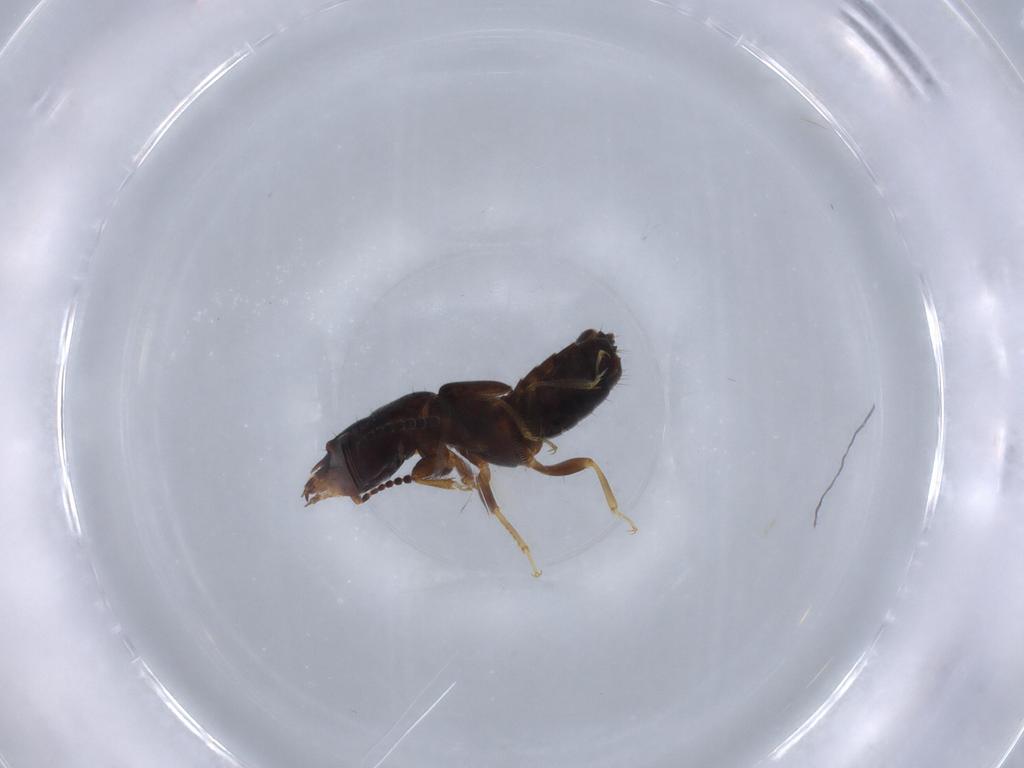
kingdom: Animalia
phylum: Arthropoda
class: Insecta
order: Coleoptera
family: Staphylinidae
